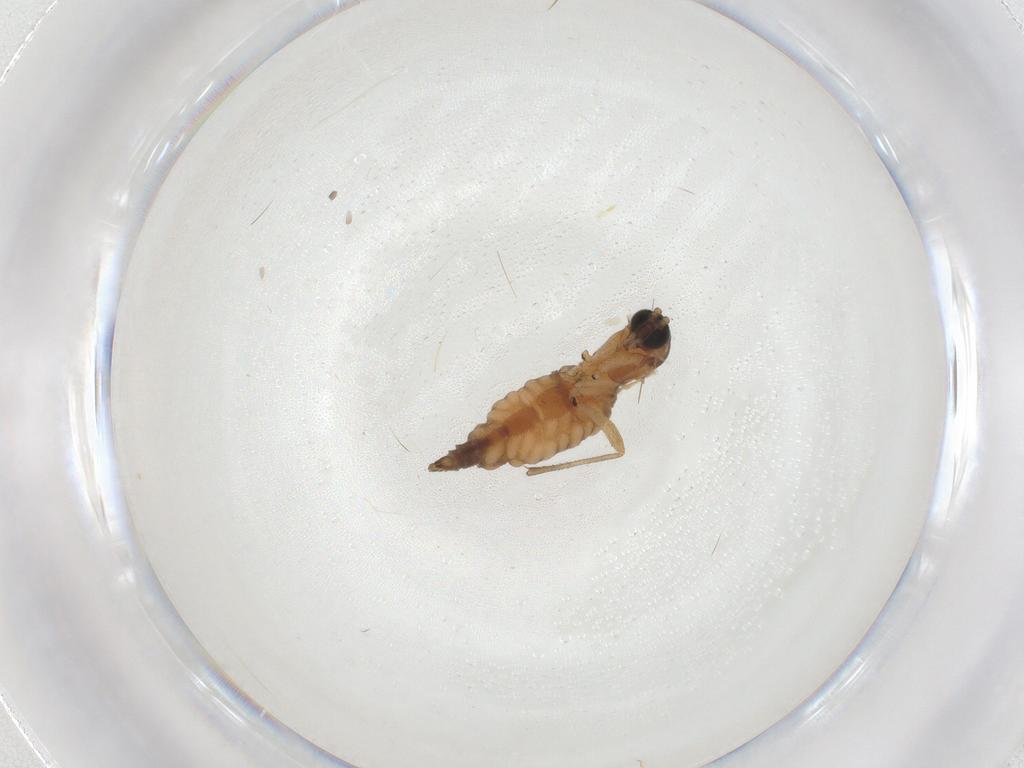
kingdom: Animalia
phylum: Arthropoda
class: Insecta
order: Diptera
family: Sciaridae
